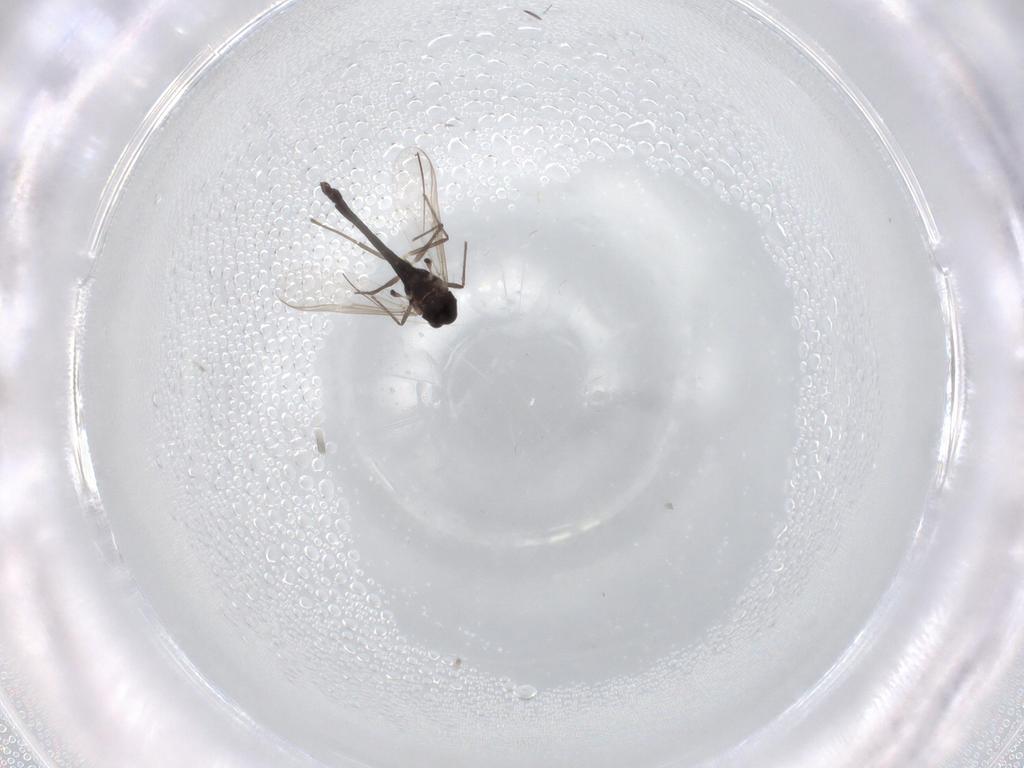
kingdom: Animalia
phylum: Arthropoda
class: Insecta
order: Diptera
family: Chironomidae
